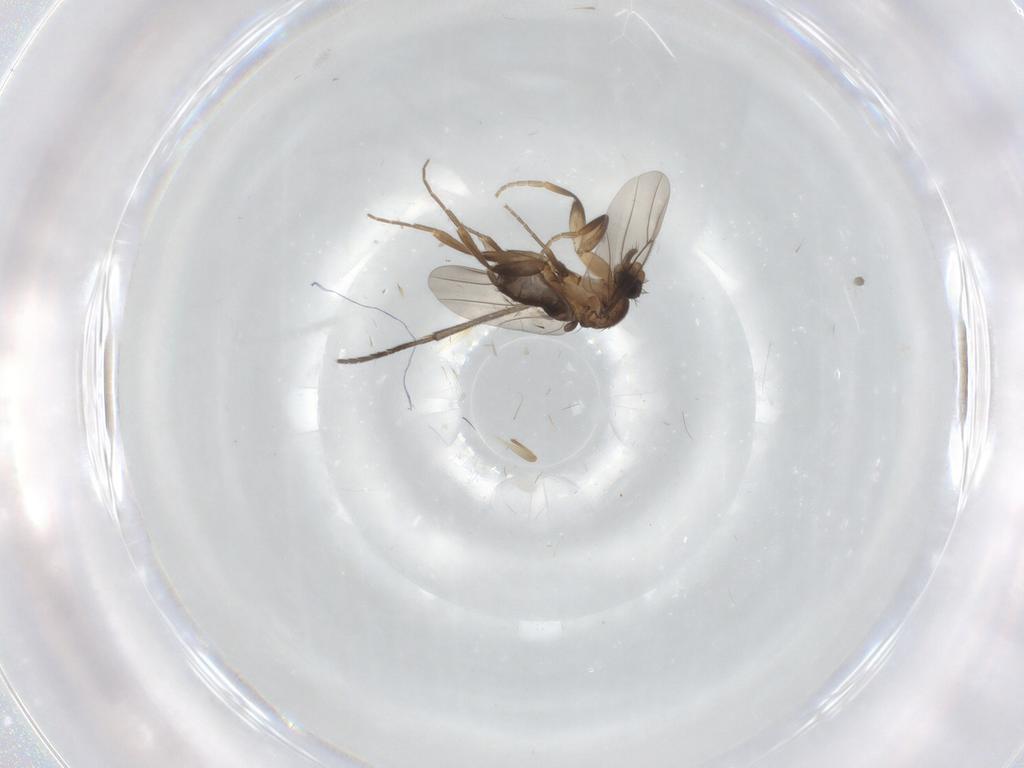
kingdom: Animalia
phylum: Arthropoda
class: Insecta
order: Diptera
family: Phoridae
